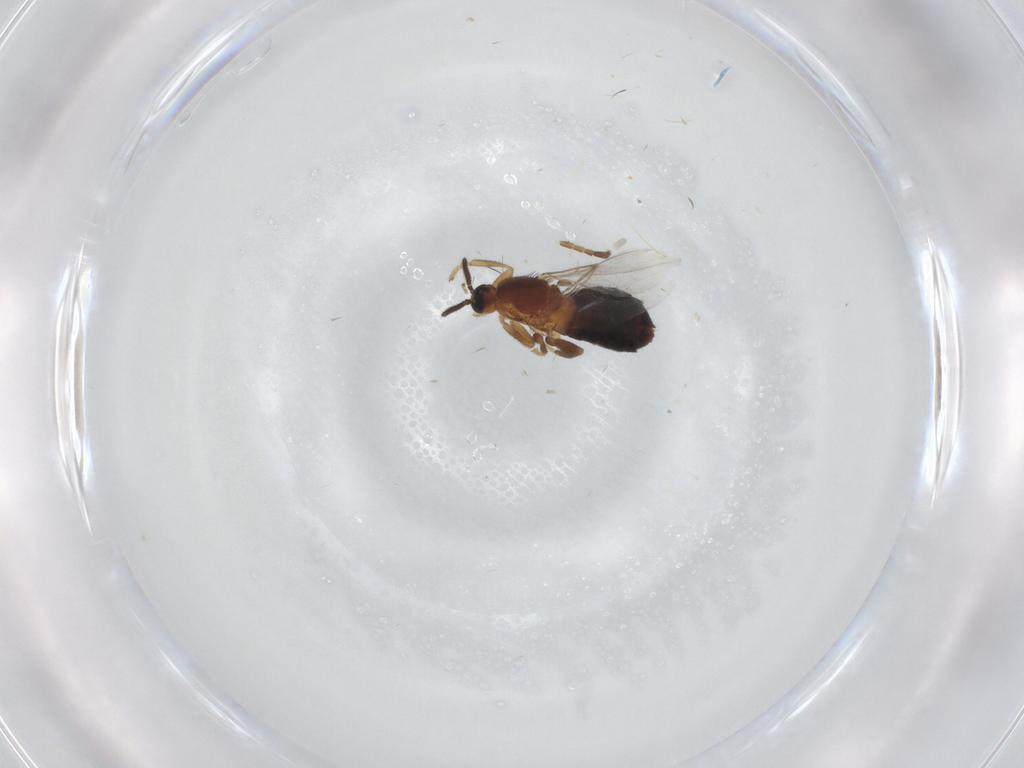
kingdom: Animalia
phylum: Arthropoda
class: Insecta
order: Diptera
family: Scatopsidae
